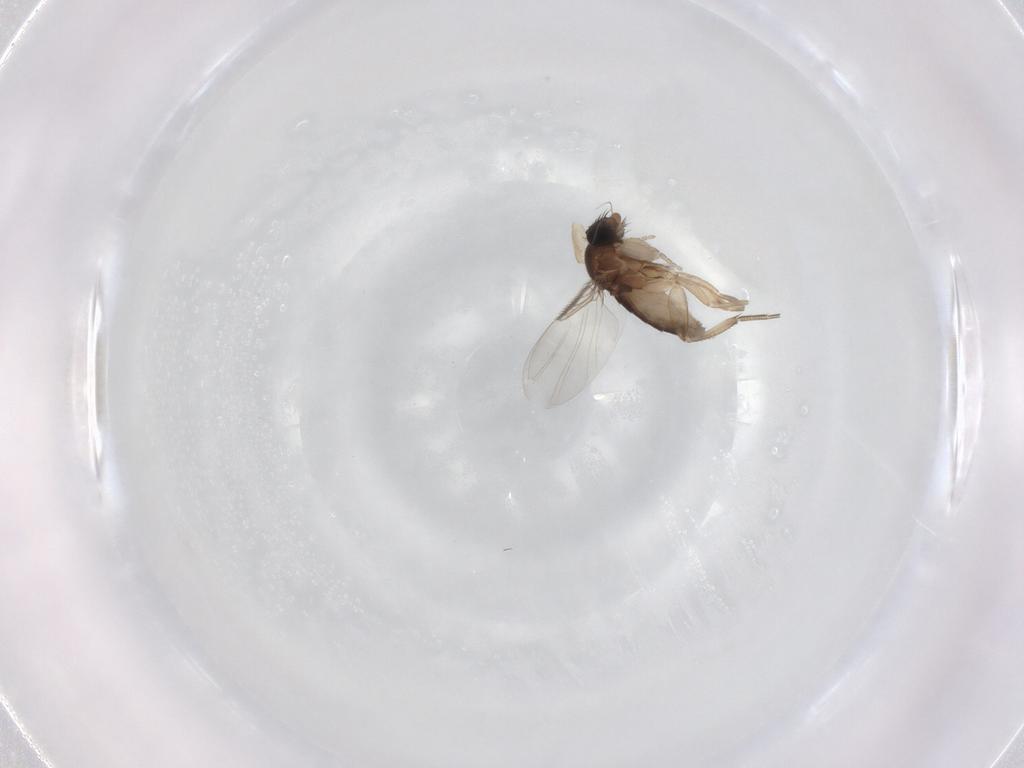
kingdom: Animalia
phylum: Arthropoda
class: Insecta
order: Diptera
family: Phoridae
